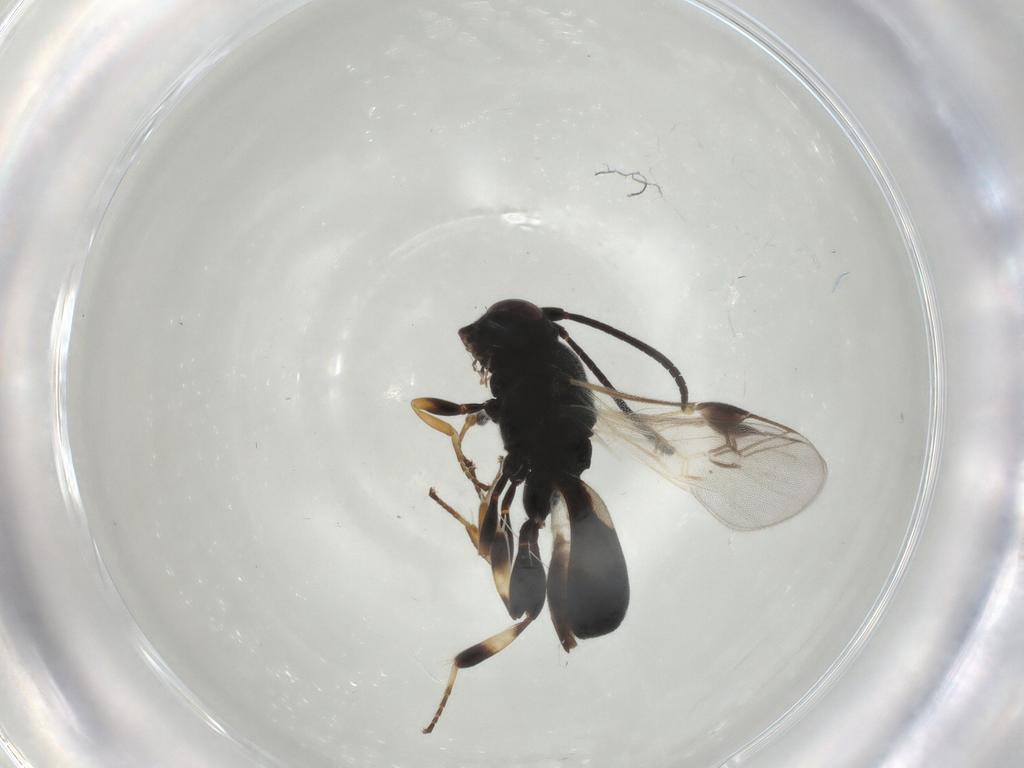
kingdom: Animalia
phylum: Arthropoda
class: Insecta
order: Hymenoptera
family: Braconidae
